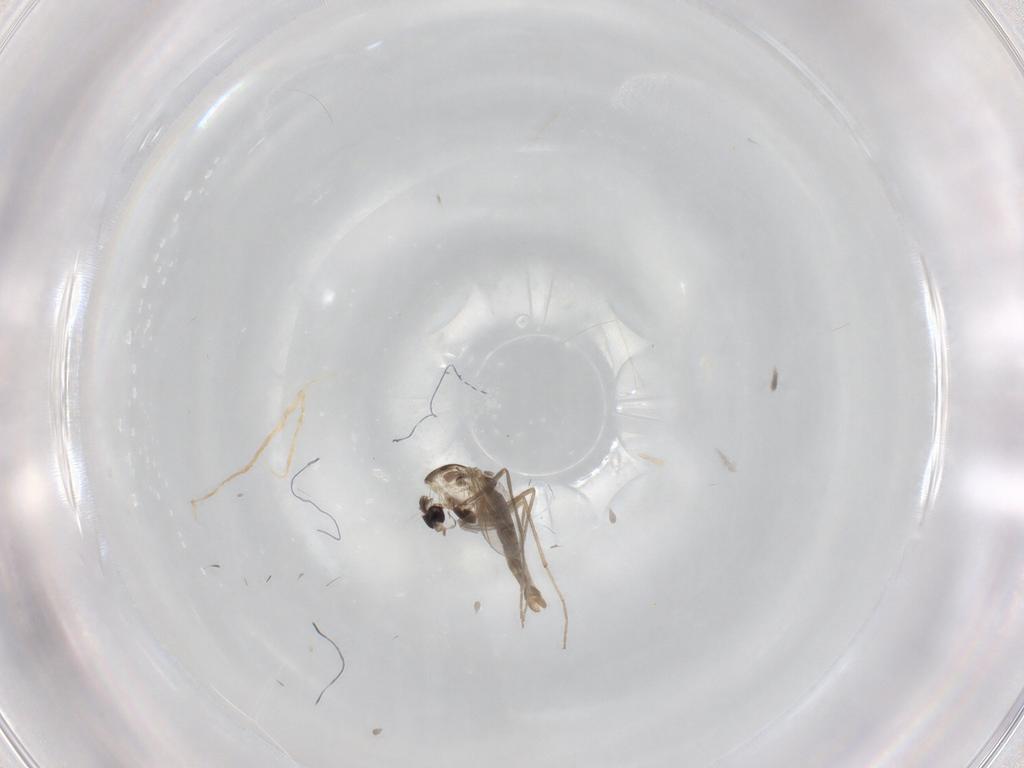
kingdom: Animalia
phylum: Arthropoda
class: Insecta
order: Diptera
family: Chironomidae
